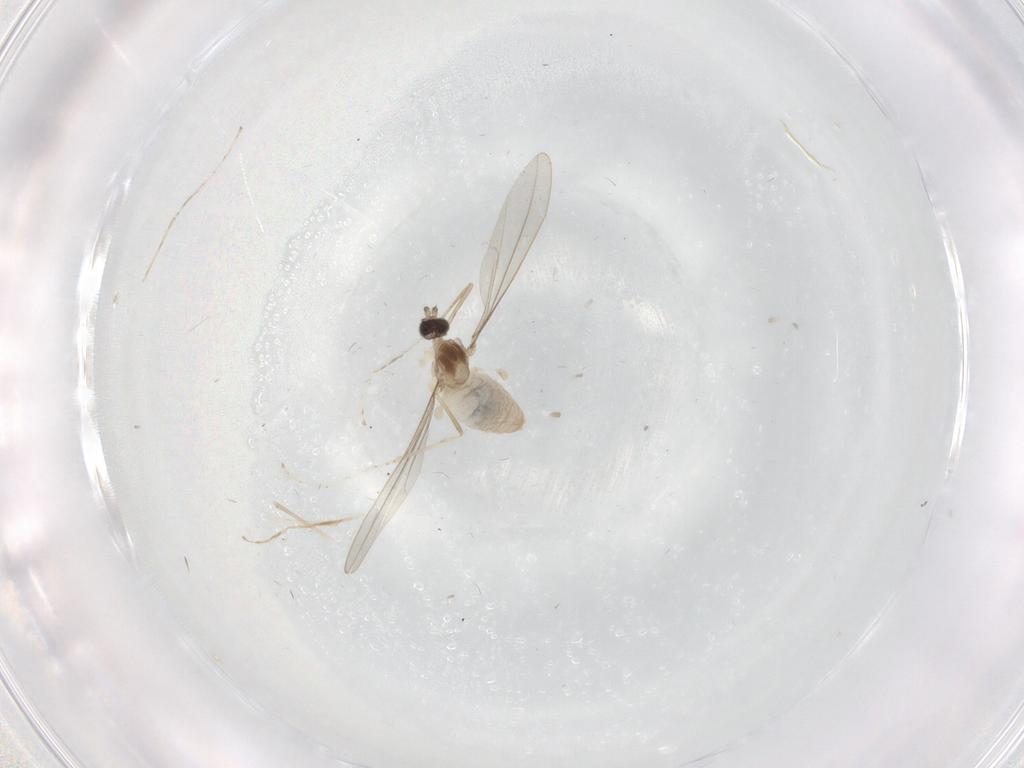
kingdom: Animalia
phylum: Arthropoda
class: Insecta
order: Diptera
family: Cecidomyiidae
